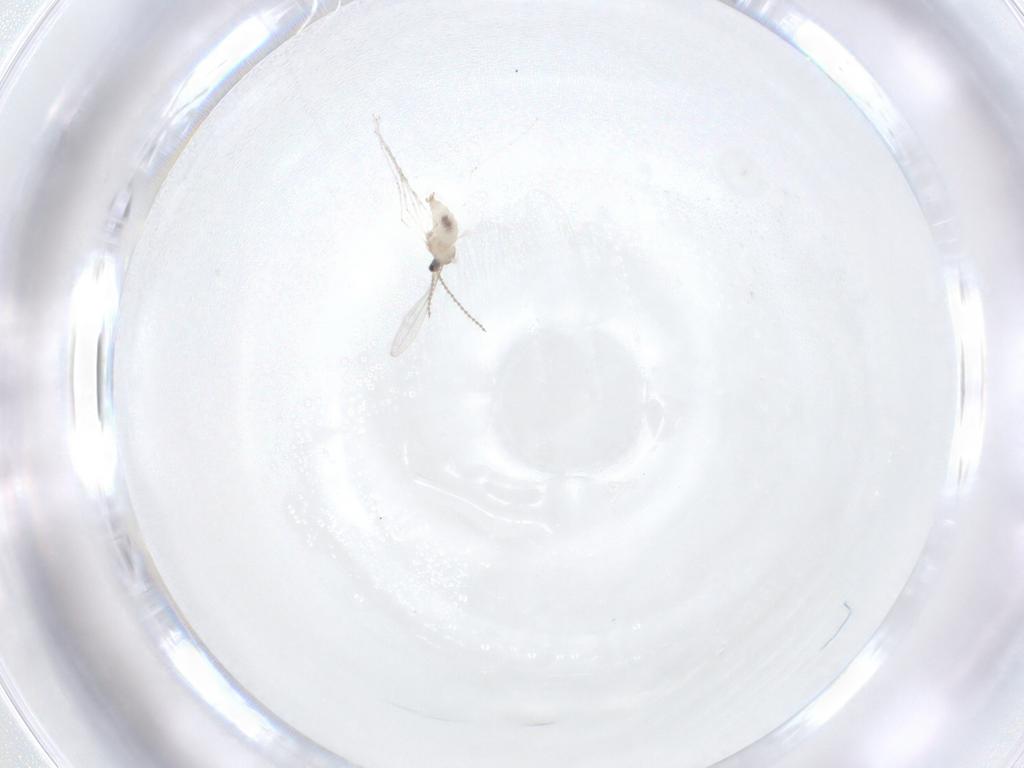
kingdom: Animalia
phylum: Arthropoda
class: Insecta
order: Diptera
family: Cecidomyiidae
